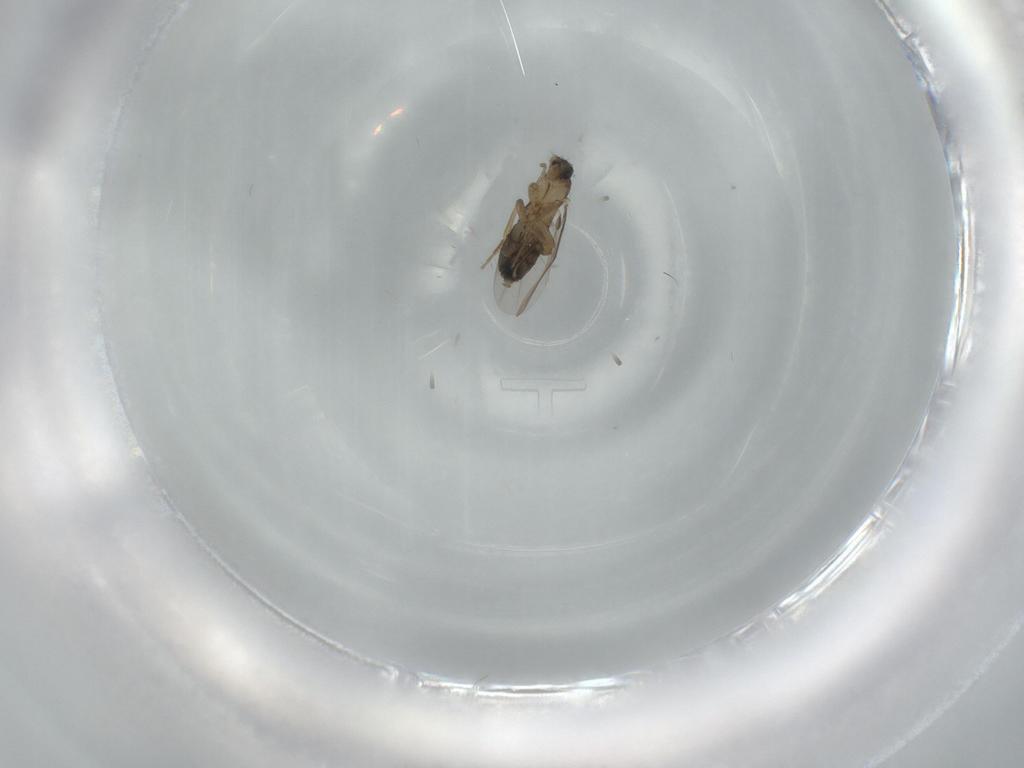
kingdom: Animalia
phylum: Arthropoda
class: Insecta
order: Diptera
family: Phoridae
